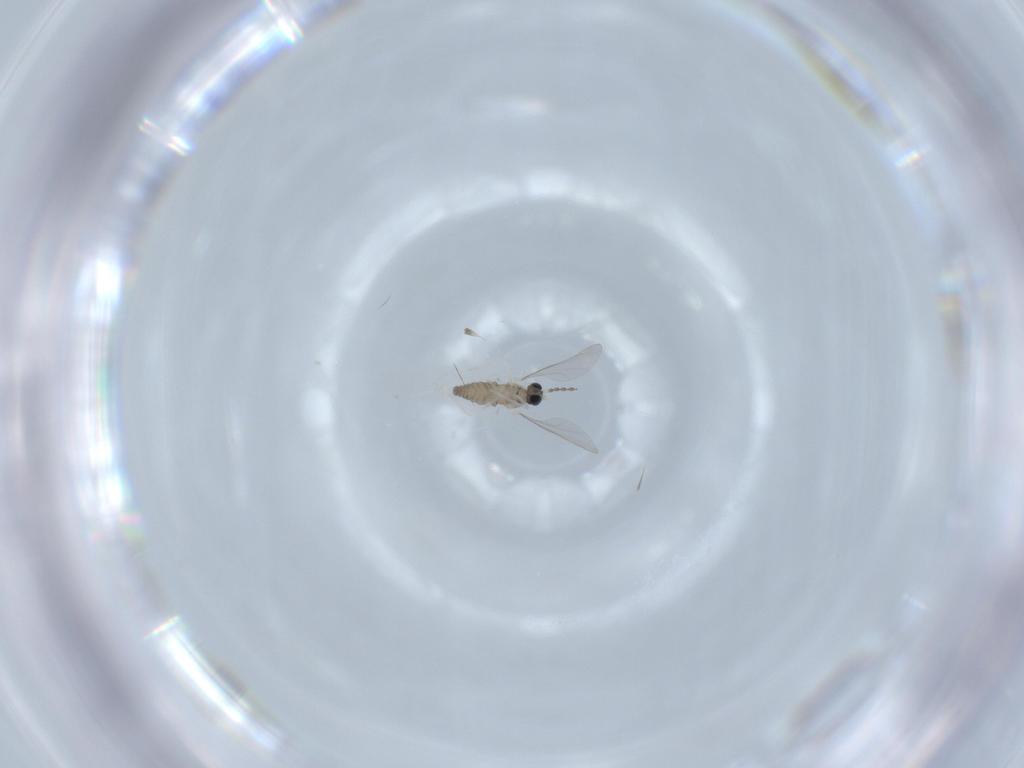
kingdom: Animalia
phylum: Arthropoda
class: Insecta
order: Diptera
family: Cecidomyiidae
